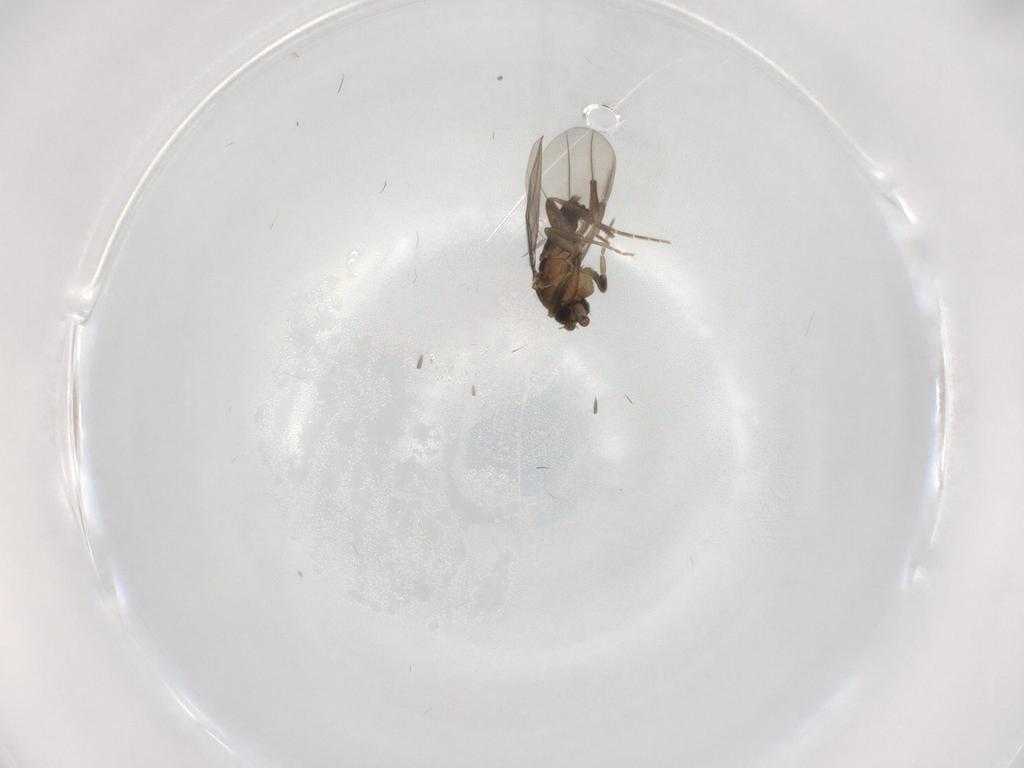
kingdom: Animalia
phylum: Arthropoda
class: Insecta
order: Diptera
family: Phoridae
